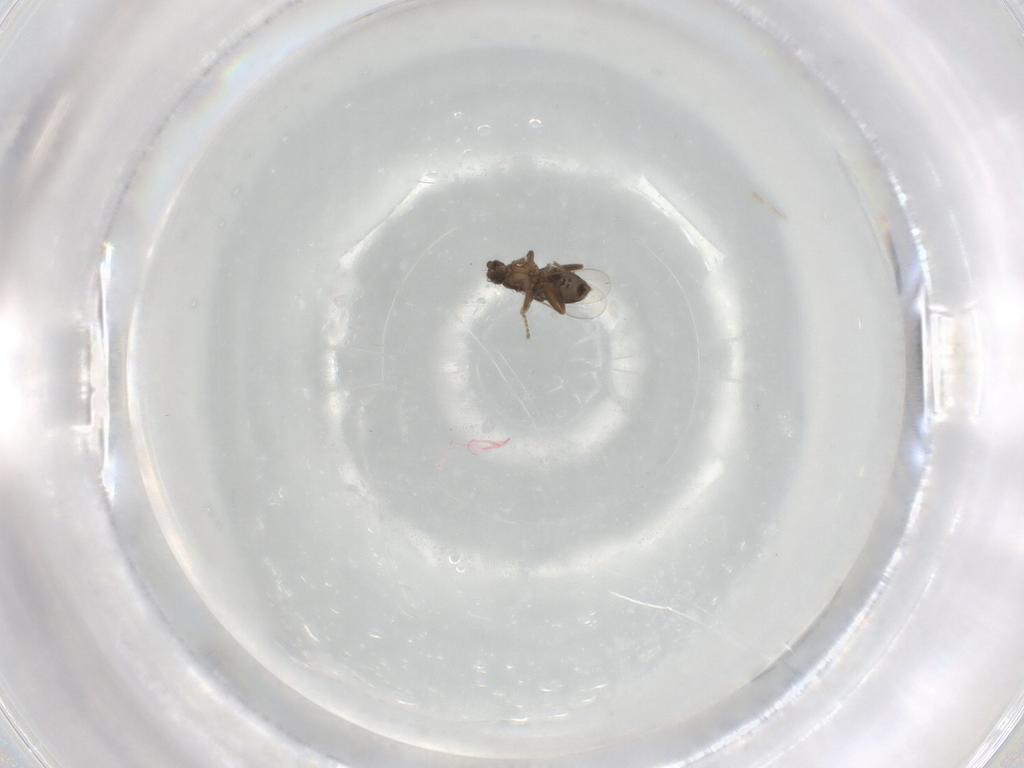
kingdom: Animalia
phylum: Arthropoda
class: Insecta
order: Diptera
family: Phoridae
